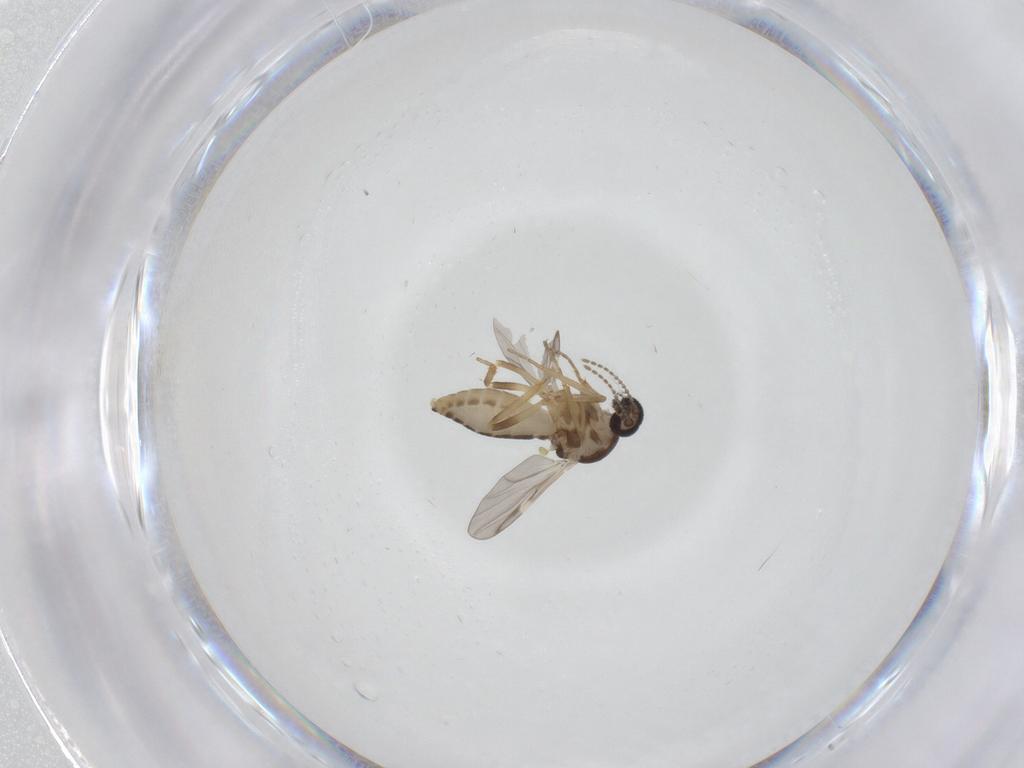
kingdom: Animalia
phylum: Arthropoda
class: Insecta
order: Diptera
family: Ceratopogonidae
